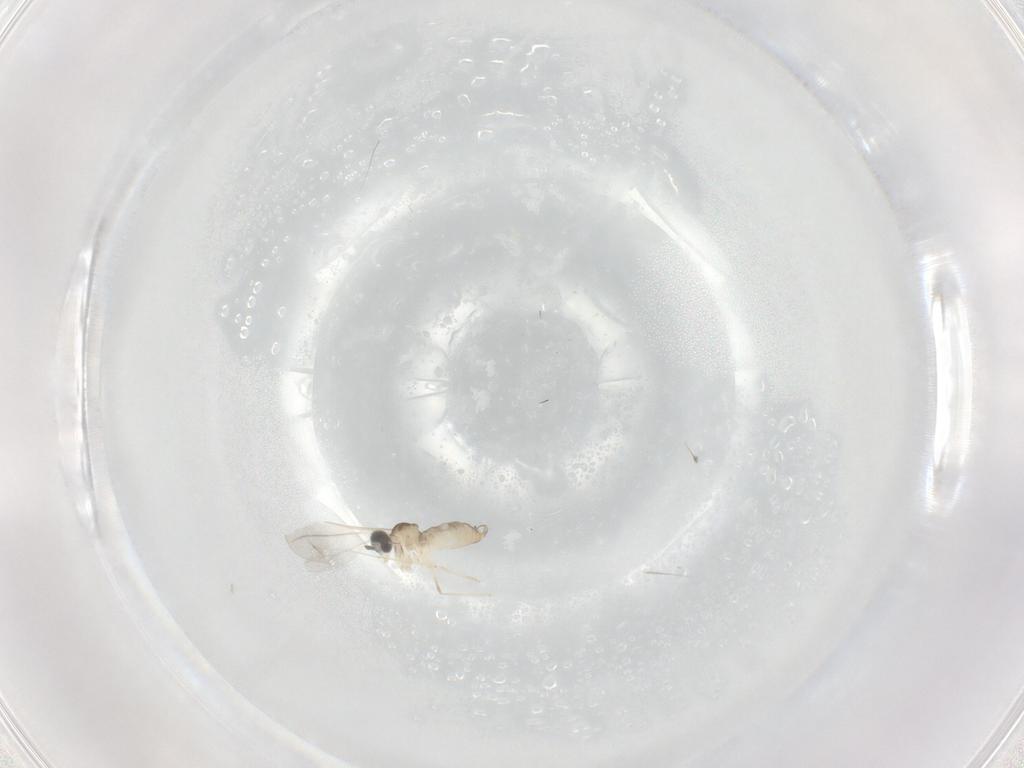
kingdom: Animalia
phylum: Arthropoda
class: Insecta
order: Diptera
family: Cecidomyiidae
